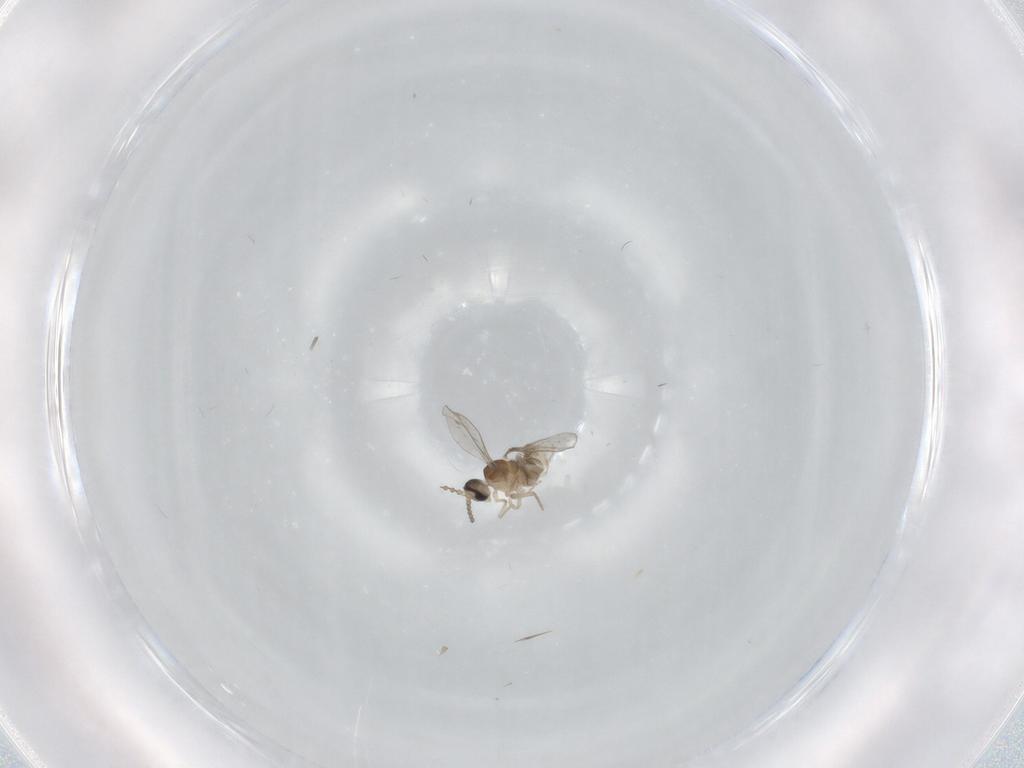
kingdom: Animalia
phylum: Arthropoda
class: Insecta
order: Diptera
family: Cecidomyiidae
